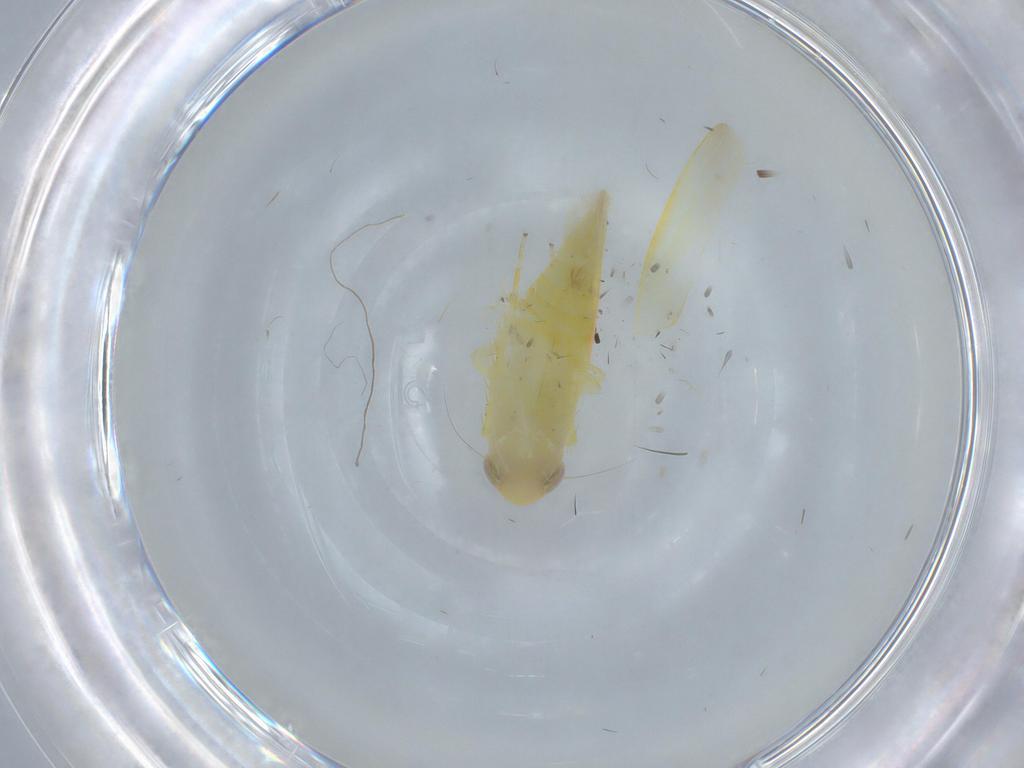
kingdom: Animalia
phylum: Arthropoda
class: Insecta
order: Hemiptera
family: Cicadellidae
